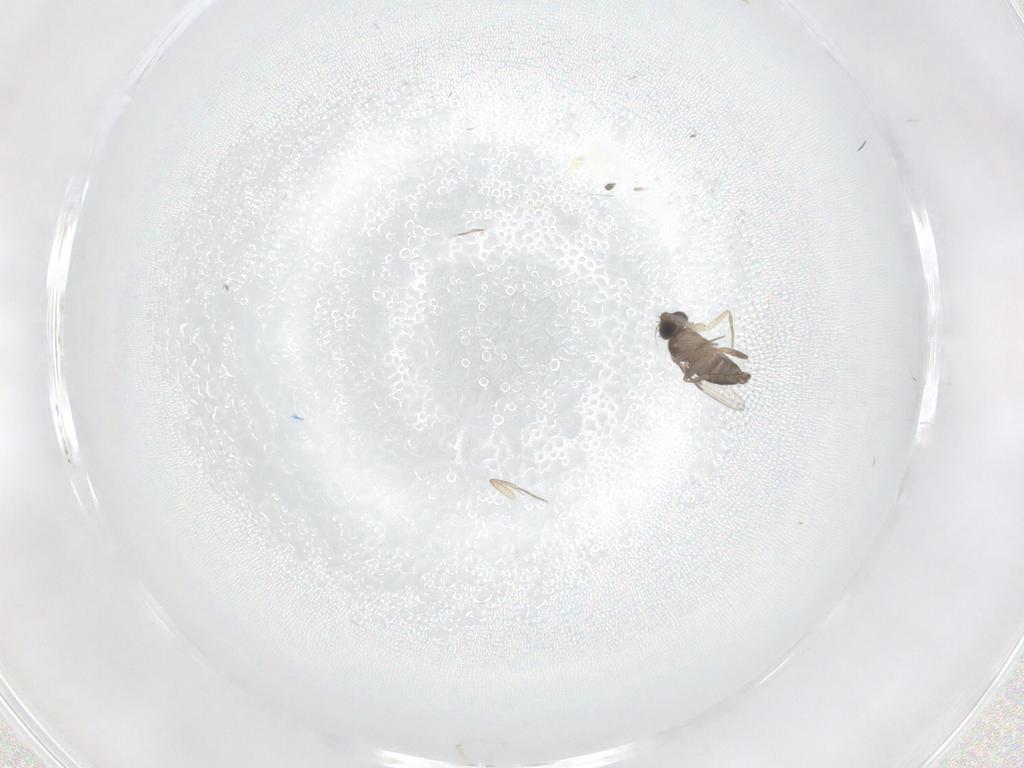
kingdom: Animalia
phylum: Arthropoda
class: Insecta
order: Diptera
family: Phoridae
